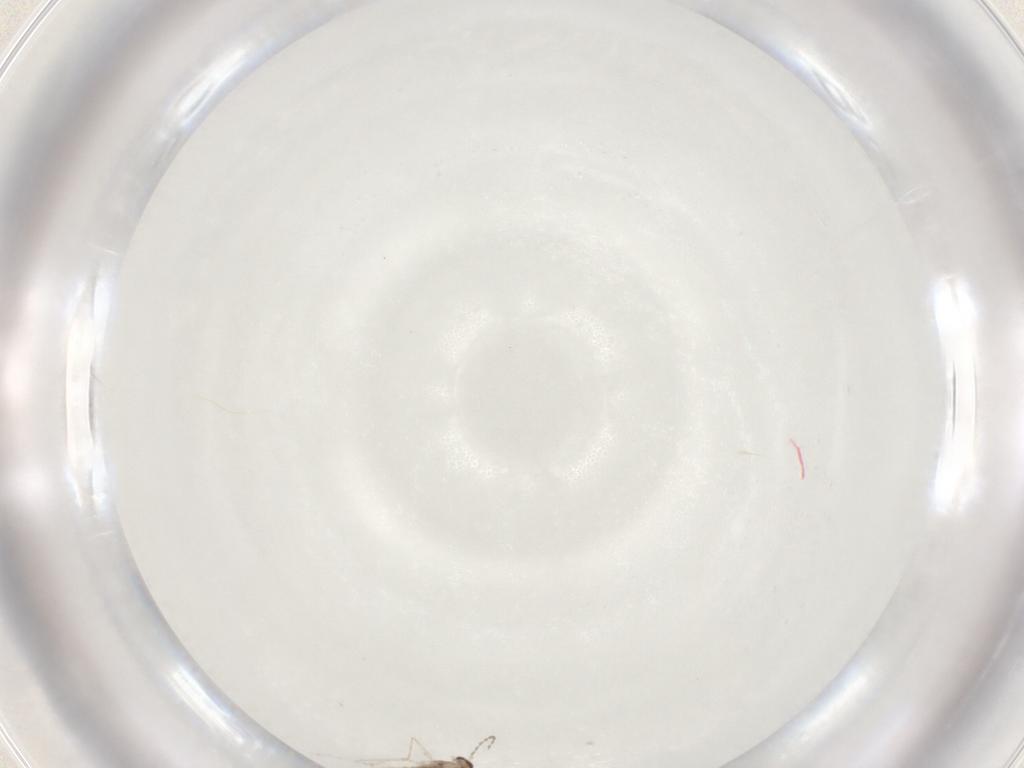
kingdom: Animalia
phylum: Arthropoda
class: Insecta
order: Diptera
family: Cecidomyiidae
